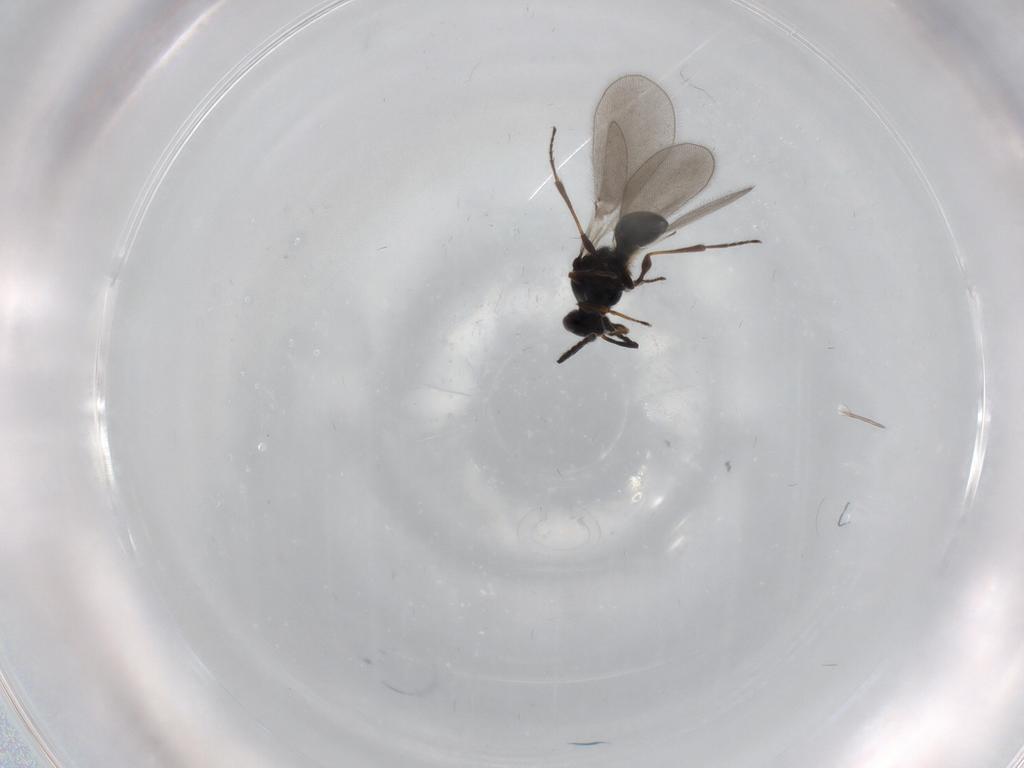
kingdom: Animalia
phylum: Arthropoda
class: Insecta
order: Hymenoptera
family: Platygastridae
